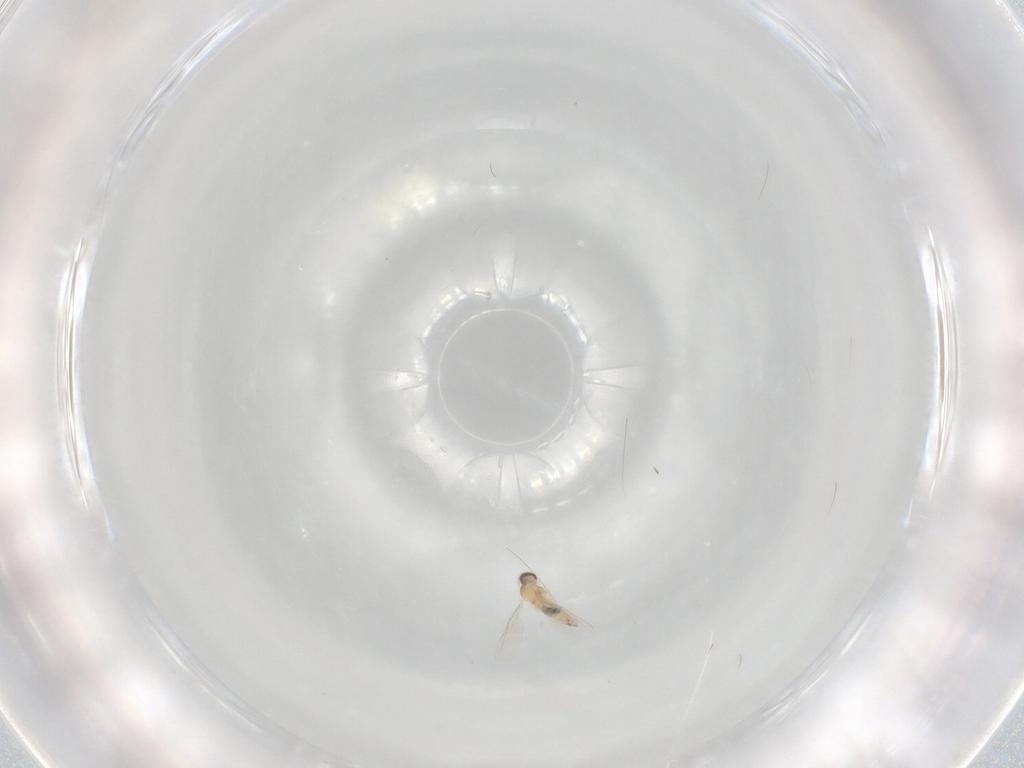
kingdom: Animalia
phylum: Arthropoda
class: Insecta
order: Diptera
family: Cecidomyiidae
